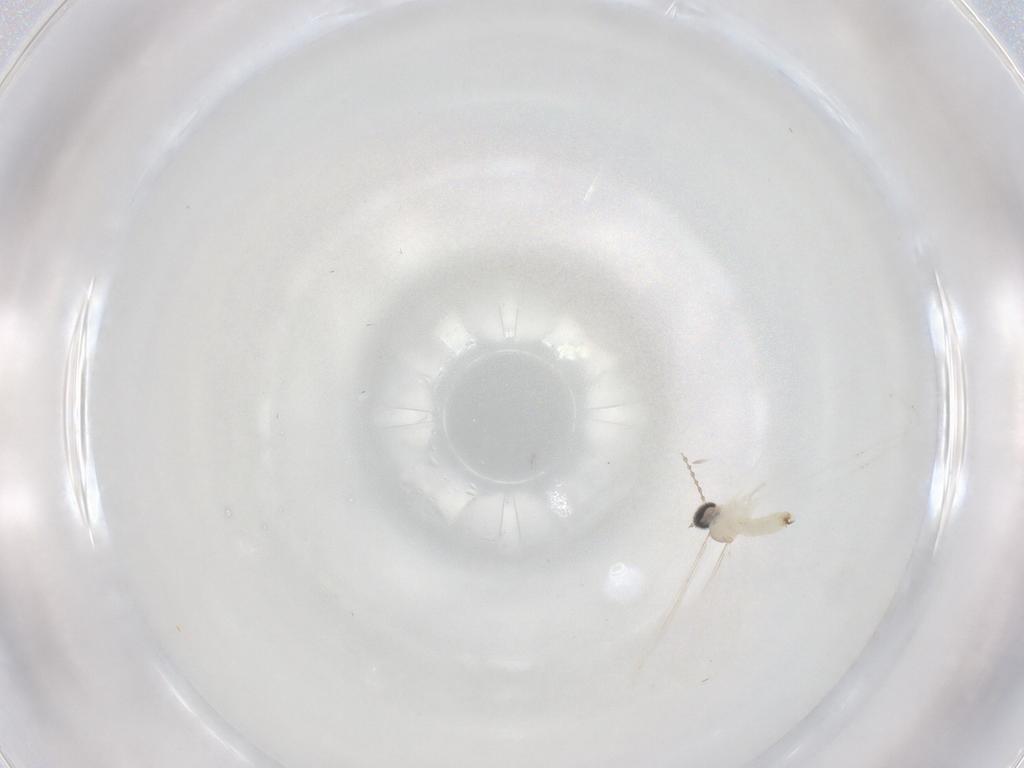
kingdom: Animalia
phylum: Arthropoda
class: Insecta
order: Diptera
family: Cecidomyiidae
